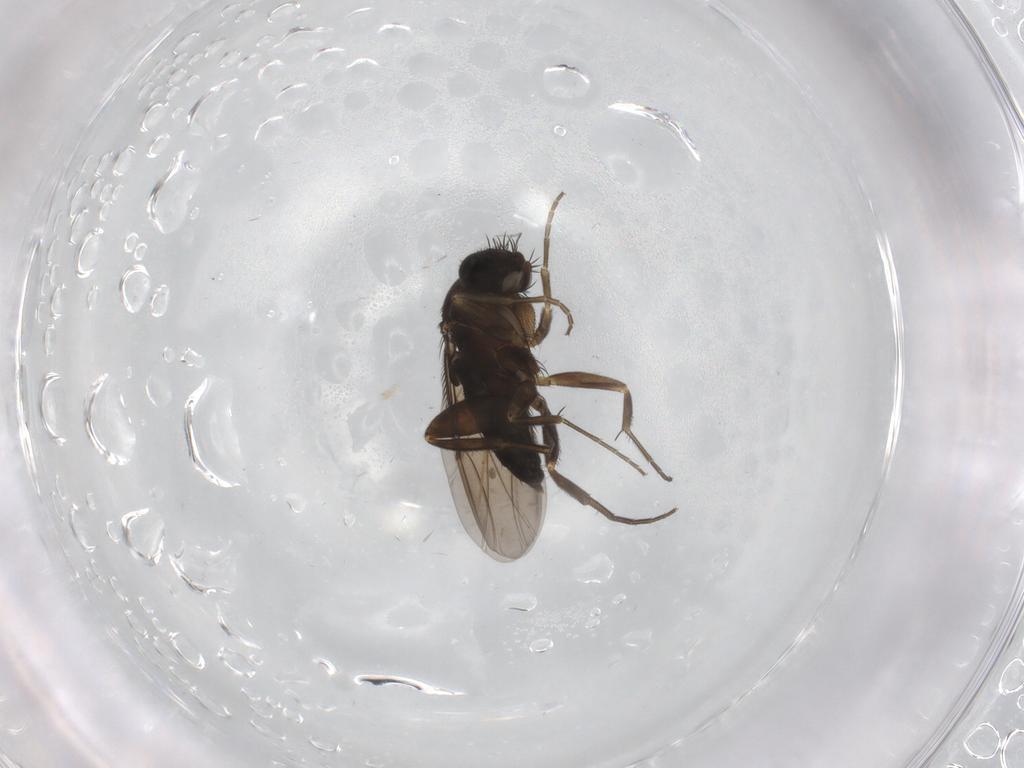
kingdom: Animalia
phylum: Arthropoda
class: Insecta
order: Diptera
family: Phoridae
